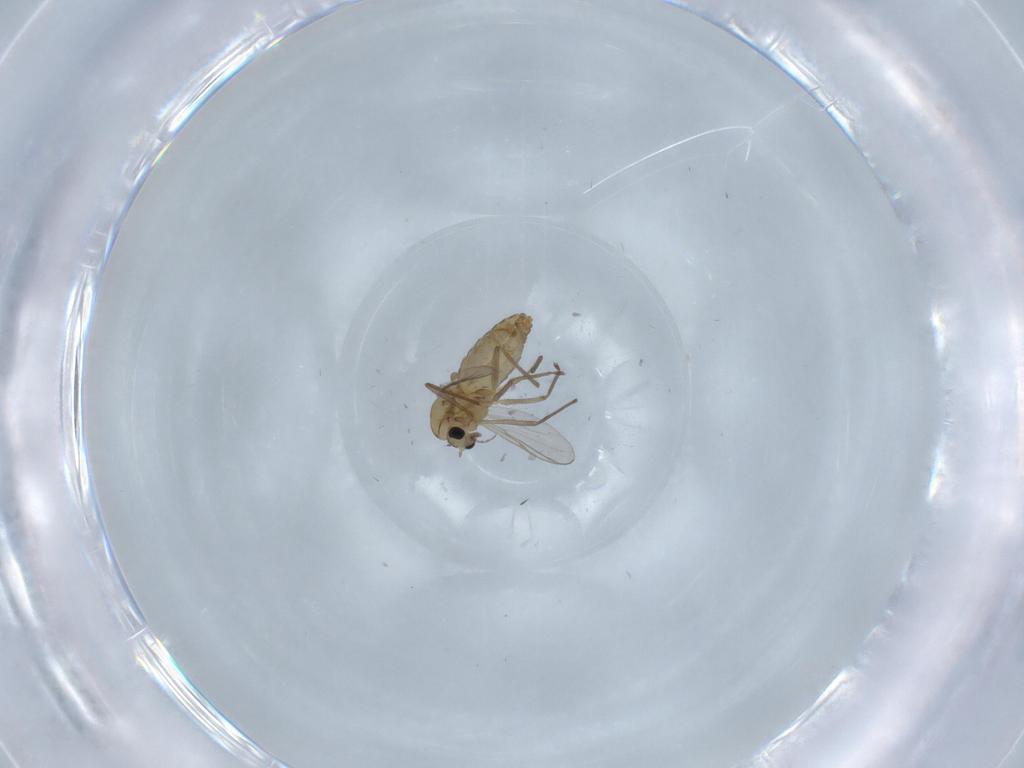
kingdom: Animalia
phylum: Arthropoda
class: Insecta
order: Diptera
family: Chironomidae
